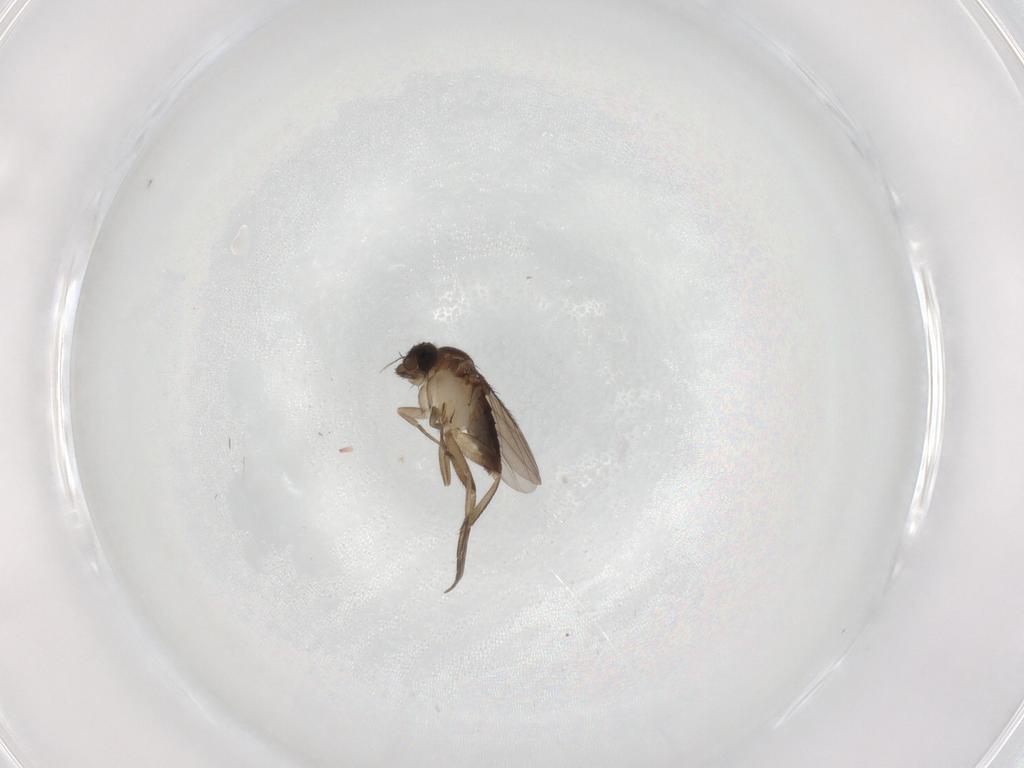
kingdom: Animalia
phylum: Arthropoda
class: Insecta
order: Diptera
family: Phoridae
